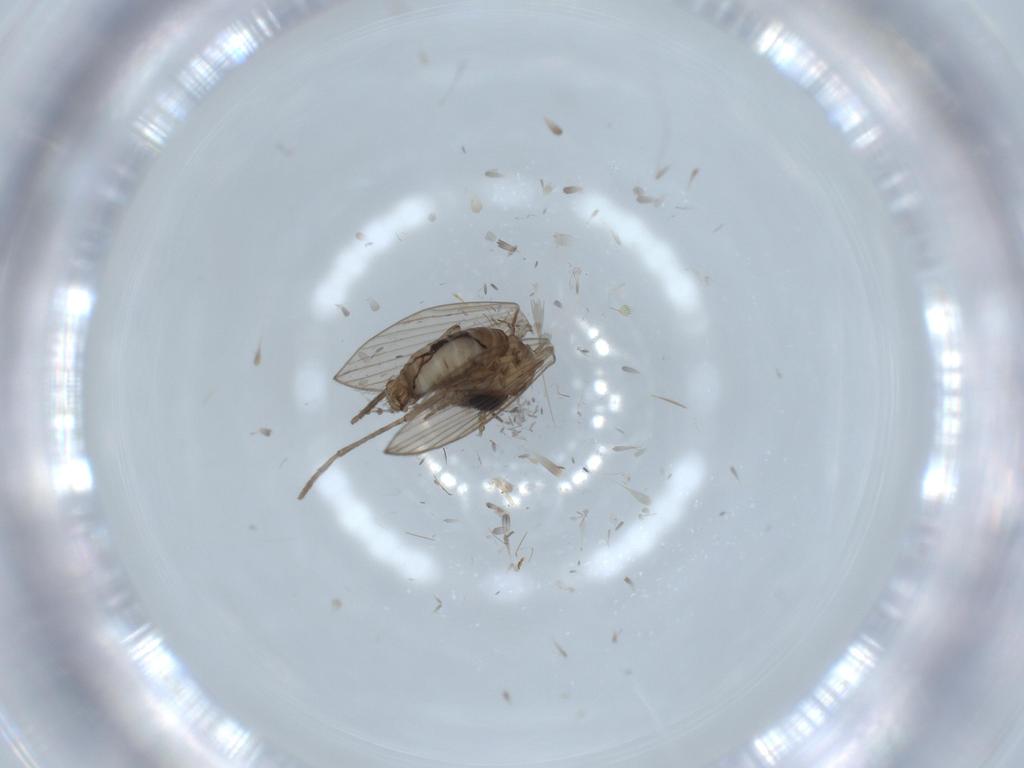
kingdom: Animalia
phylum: Arthropoda
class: Insecta
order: Diptera
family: Psychodidae
